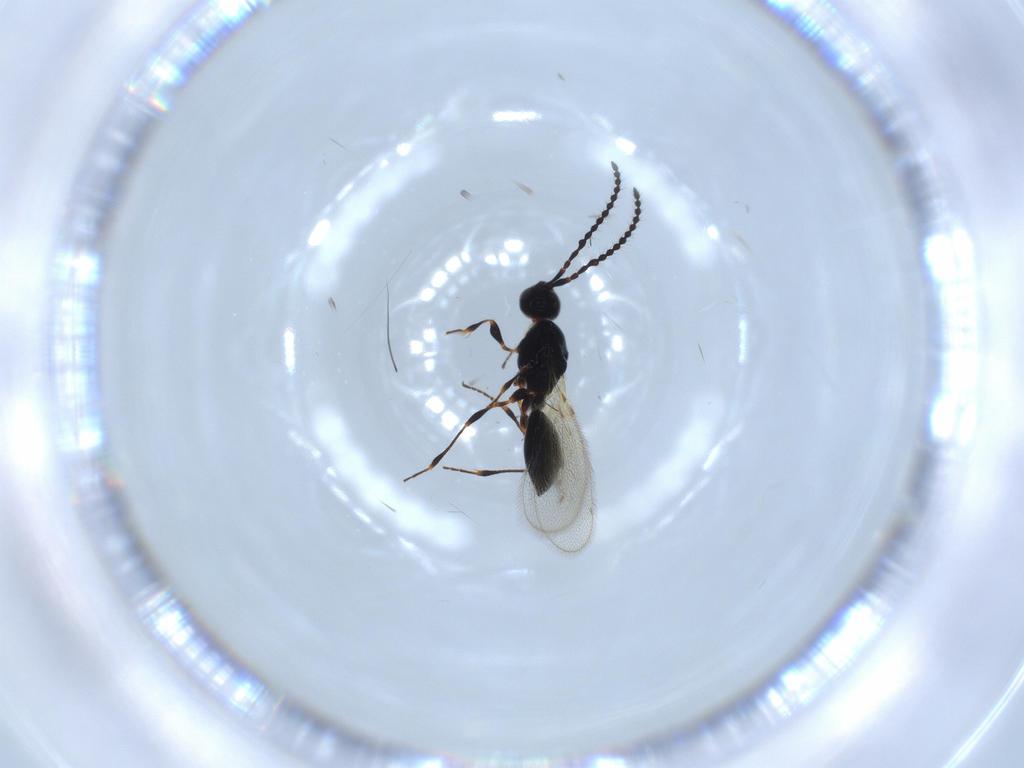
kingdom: Animalia
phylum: Arthropoda
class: Insecta
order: Hymenoptera
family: Diapriidae
